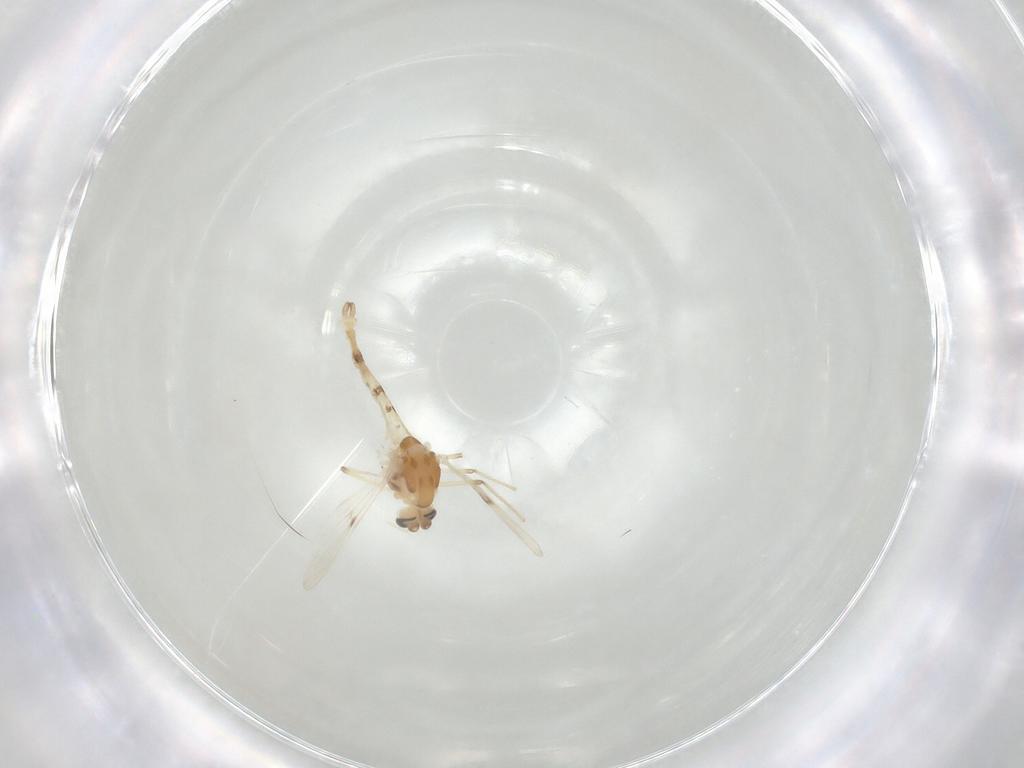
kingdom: Animalia
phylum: Arthropoda
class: Insecta
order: Diptera
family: Chironomidae
